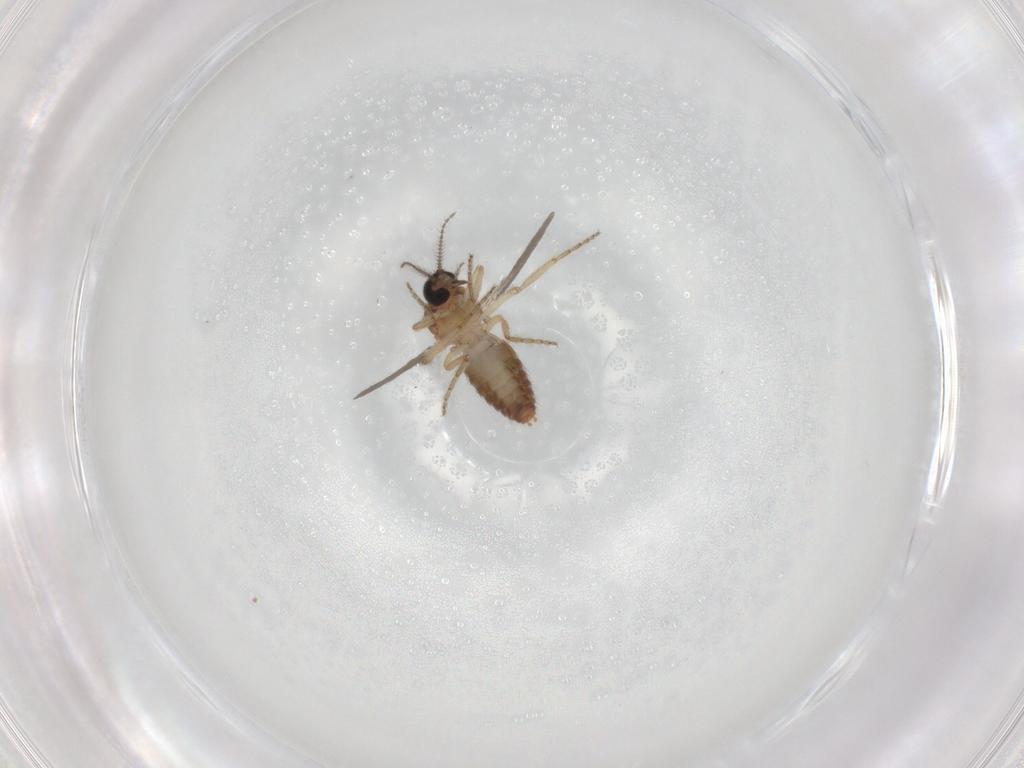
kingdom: Animalia
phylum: Arthropoda
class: Insecta
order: Diptera
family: Ceratopogonidae
